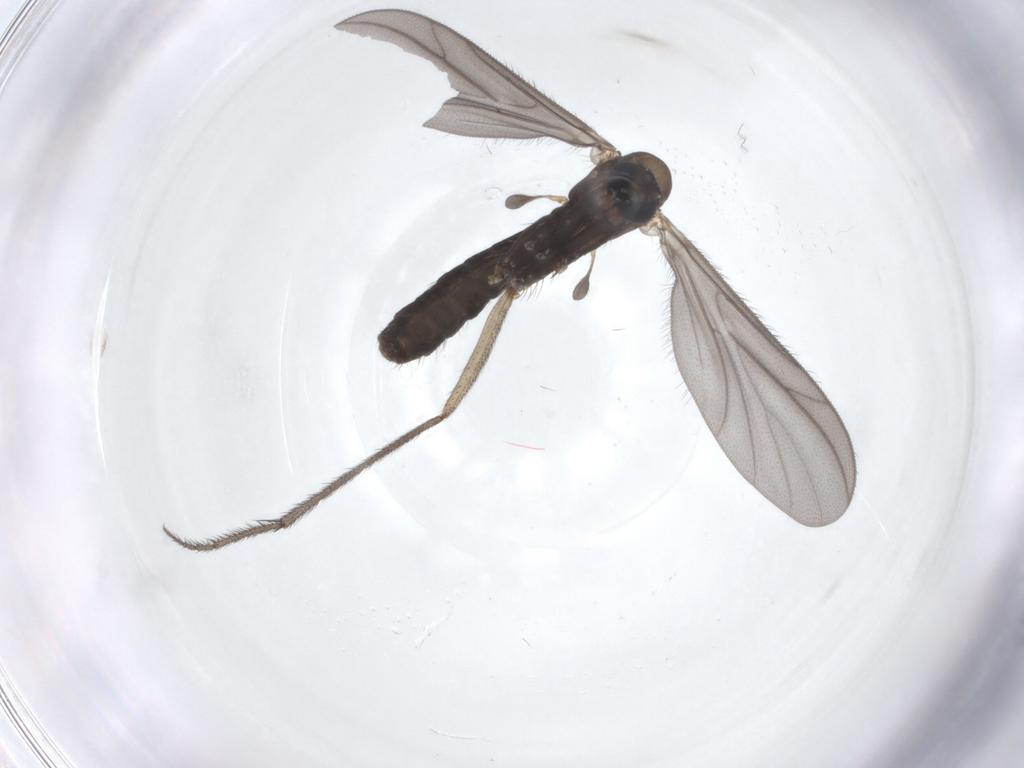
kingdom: Animalia
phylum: Arthropoda
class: Insecta
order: Diptera
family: Ditomyiidae
